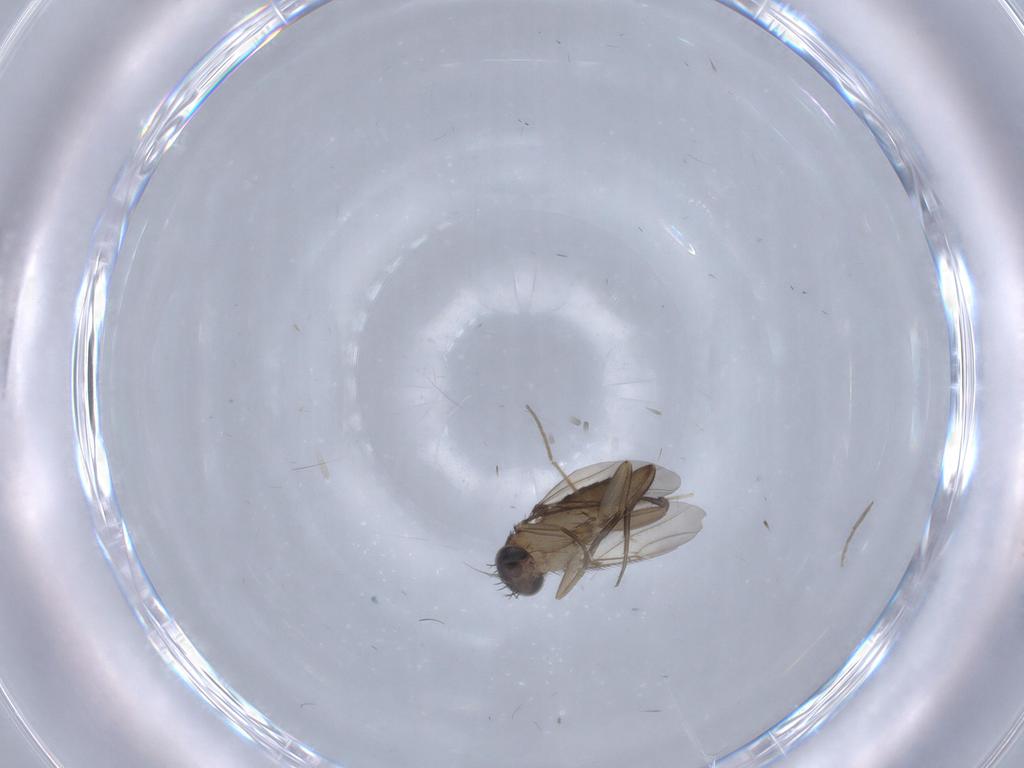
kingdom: Animalia
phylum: Arthropoda
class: Insecta
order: Diptera
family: Phoridae
